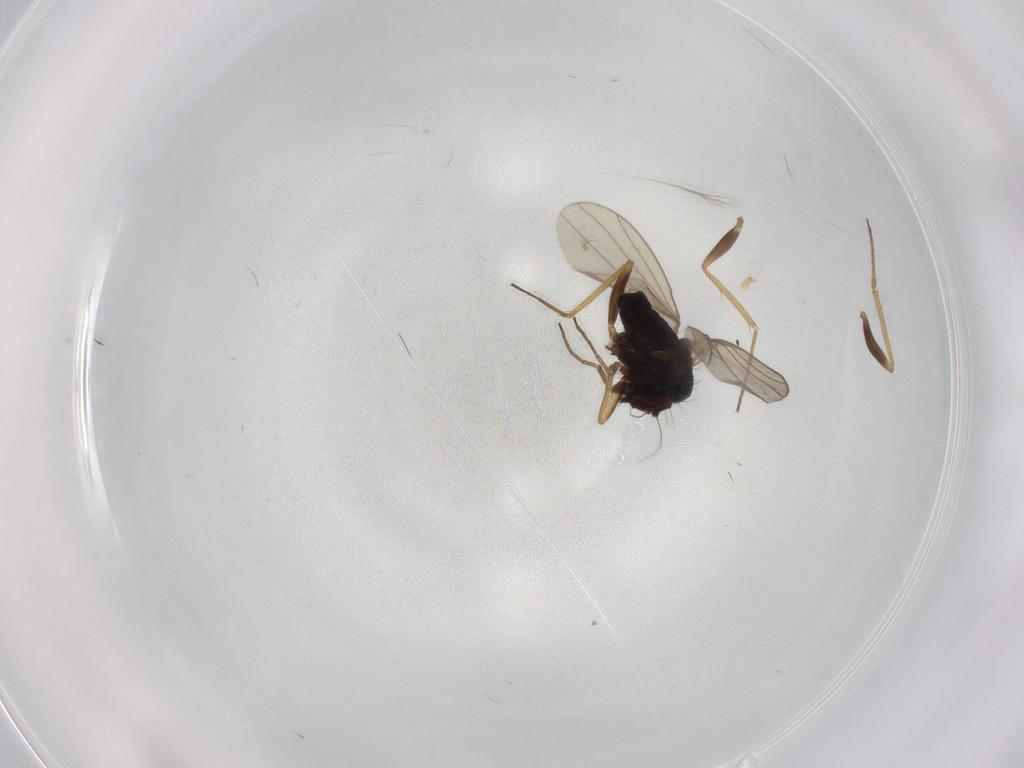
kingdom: Animalia
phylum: Arthropoda
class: Insecta
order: Diptera
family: Dolichopodidae
